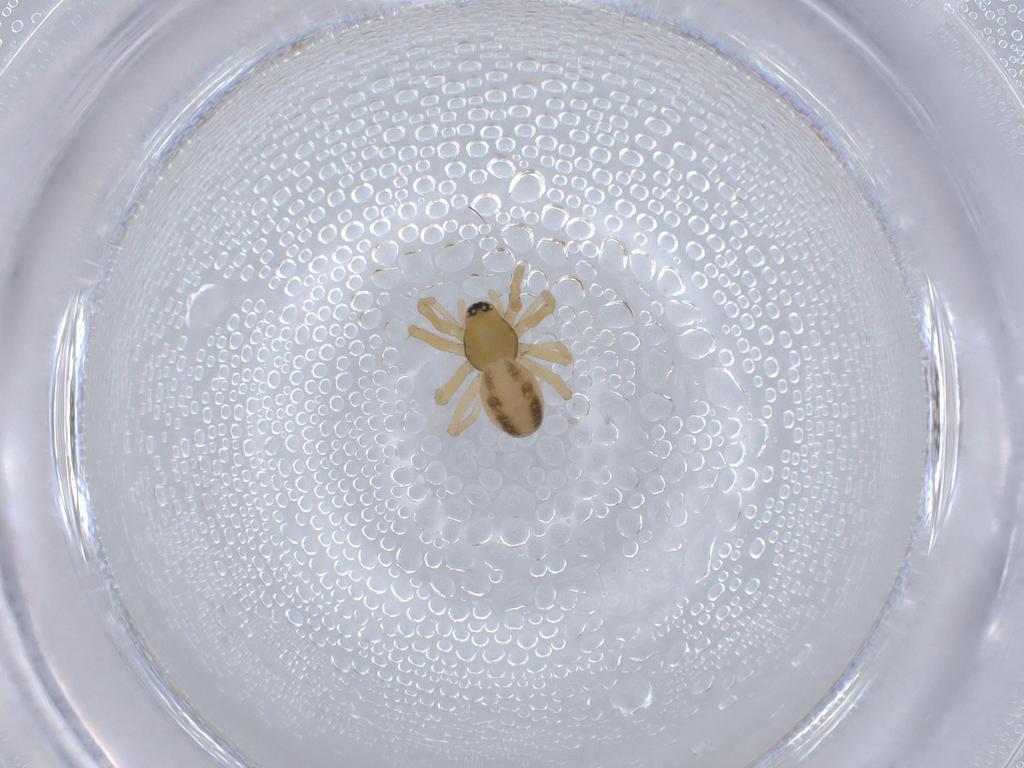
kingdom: Animalia
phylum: Arthropoda
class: Arachnida
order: Araneae
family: Linyphiidae
